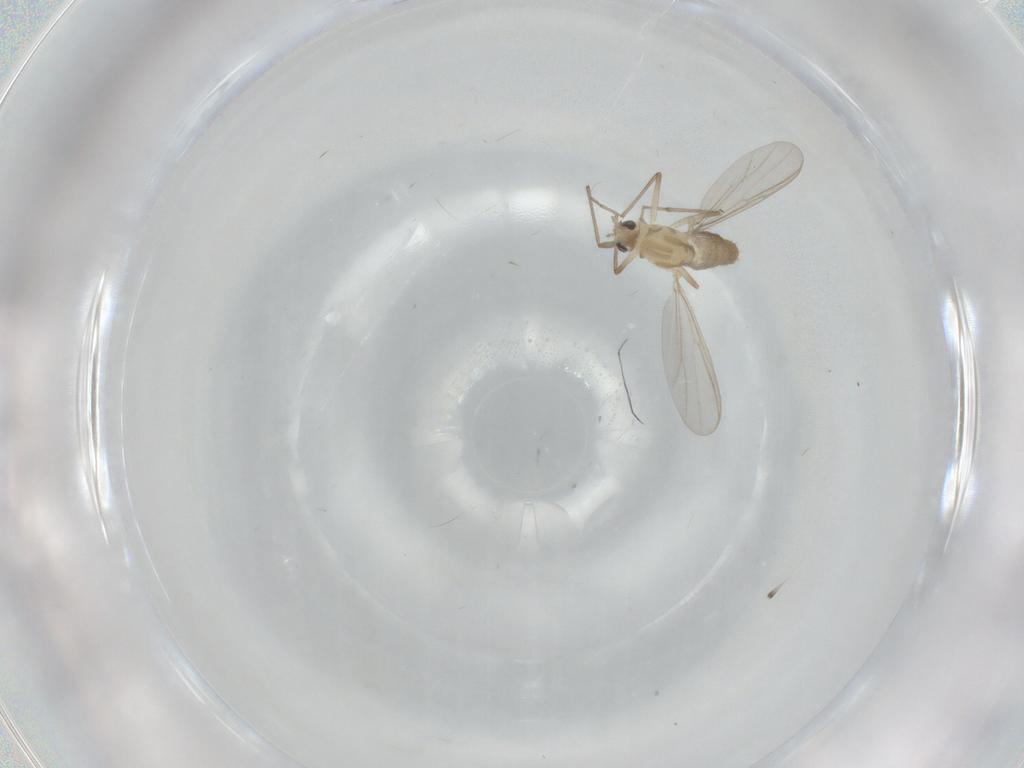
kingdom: Animalia
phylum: Arthropoda
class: Insecta
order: Diptera
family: Chironomidae
